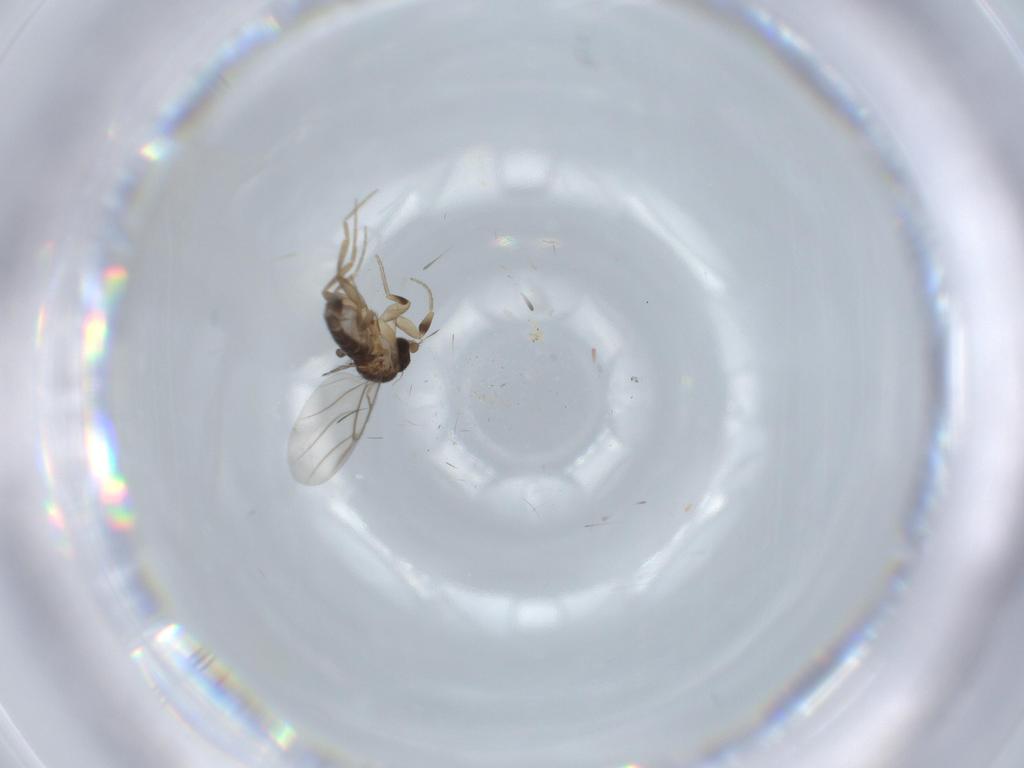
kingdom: Animalia
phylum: Arthropoda
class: Insecta
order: Diptera
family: Phoridae
